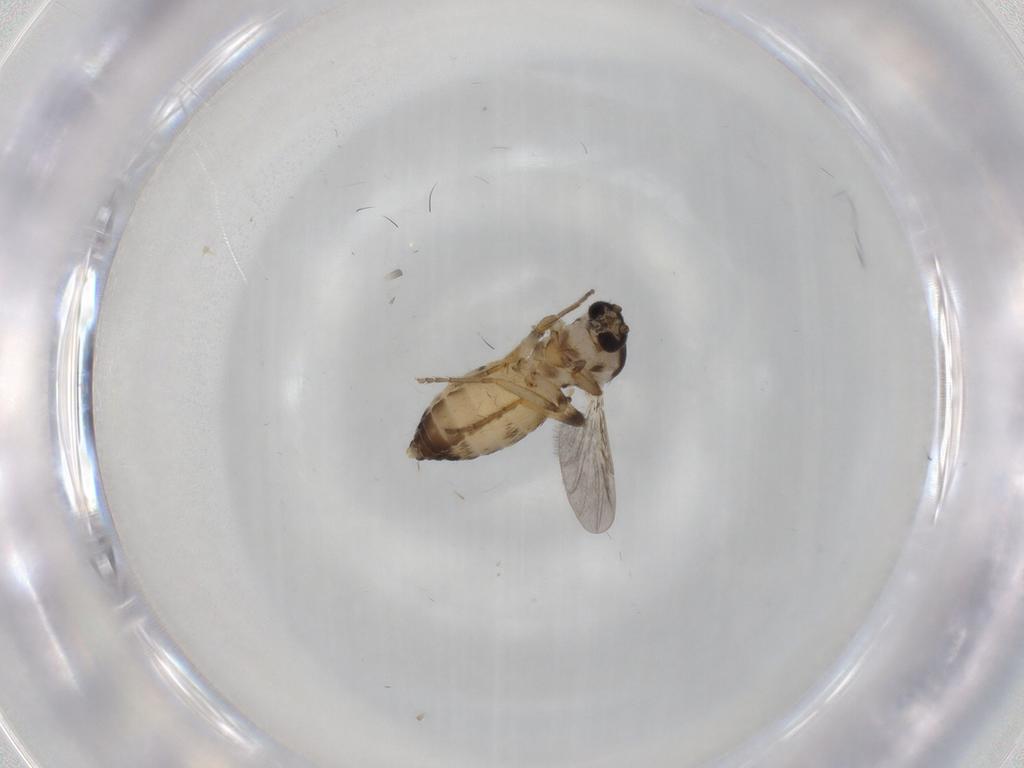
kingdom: Animalia
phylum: Arthropoda
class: Insecta
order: Diptera
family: Ceratopogonidae
